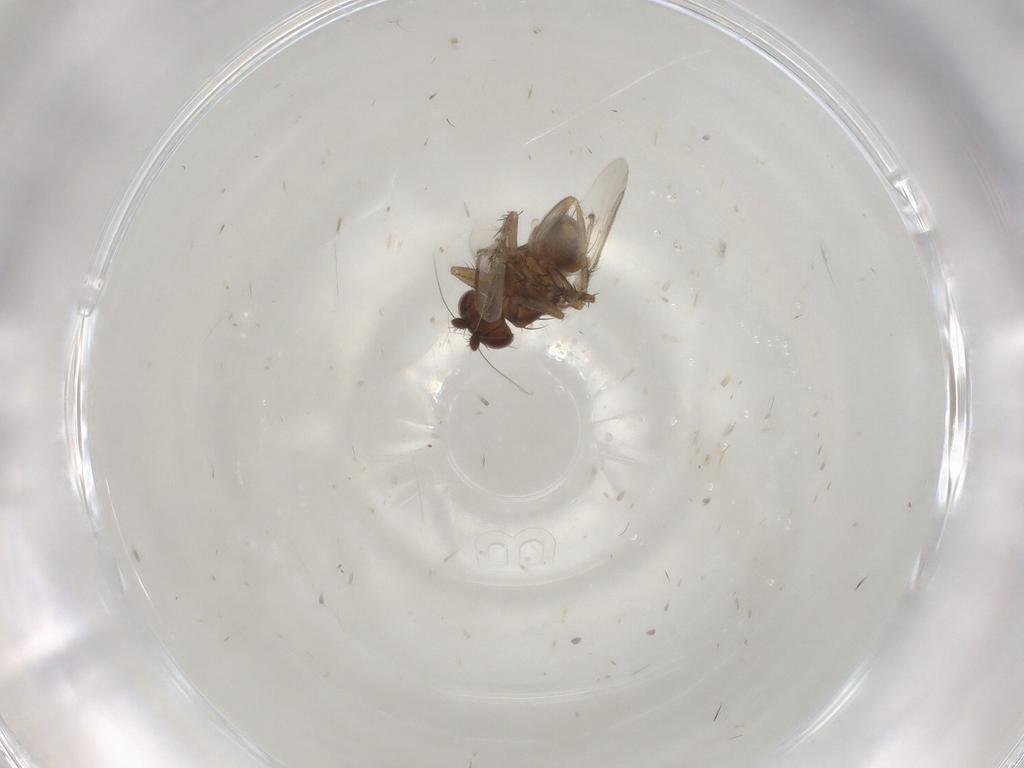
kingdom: Animalia
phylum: Arthropoda
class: Insecta
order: Diptera
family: Sphaeroceridae
